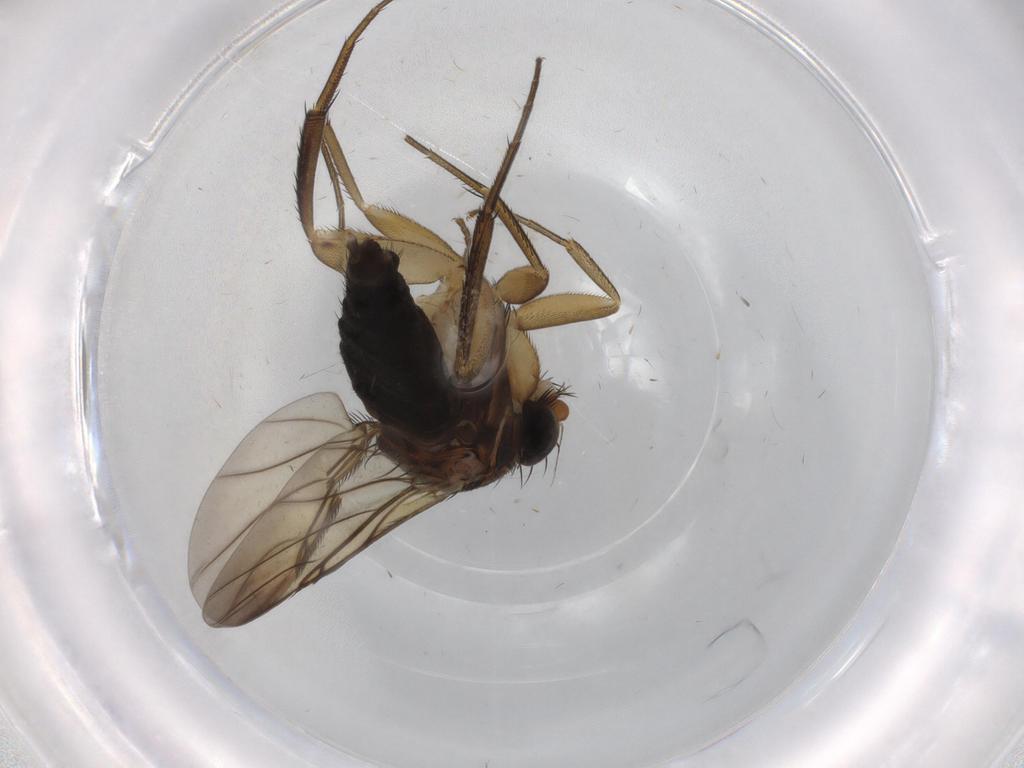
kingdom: Animalia
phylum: Arthropoda
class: Insecta
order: Diptera
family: Phoridae
